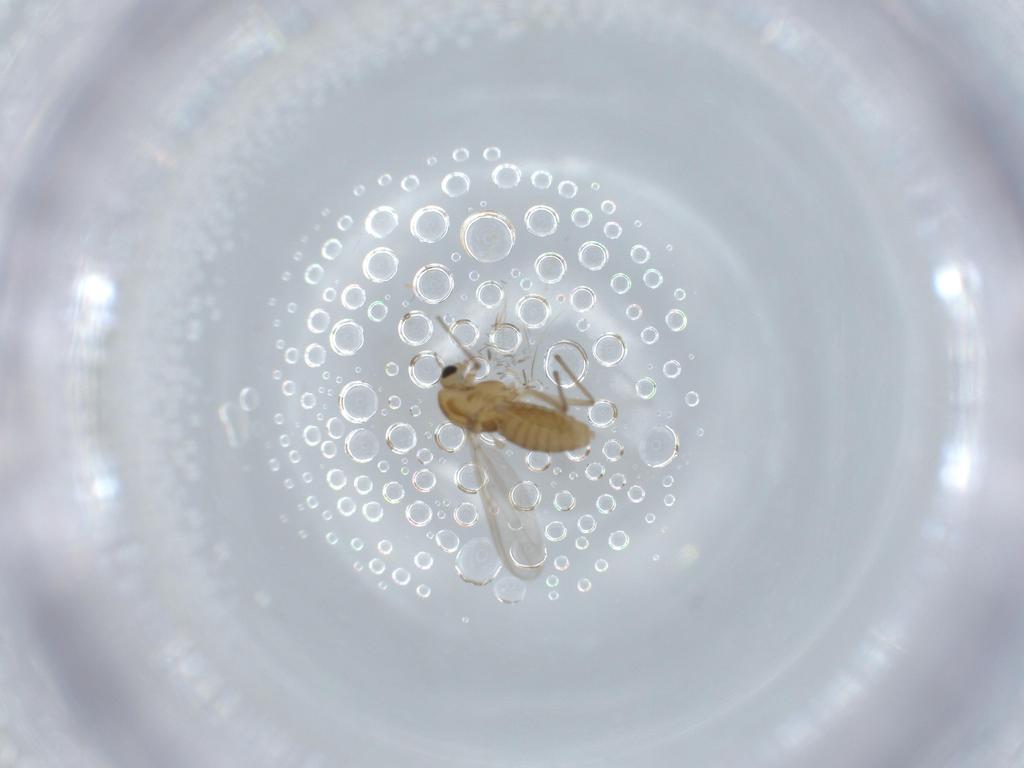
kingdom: Animalia
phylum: Arthropoda
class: Insecta
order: Diptera
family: Chironomidae
